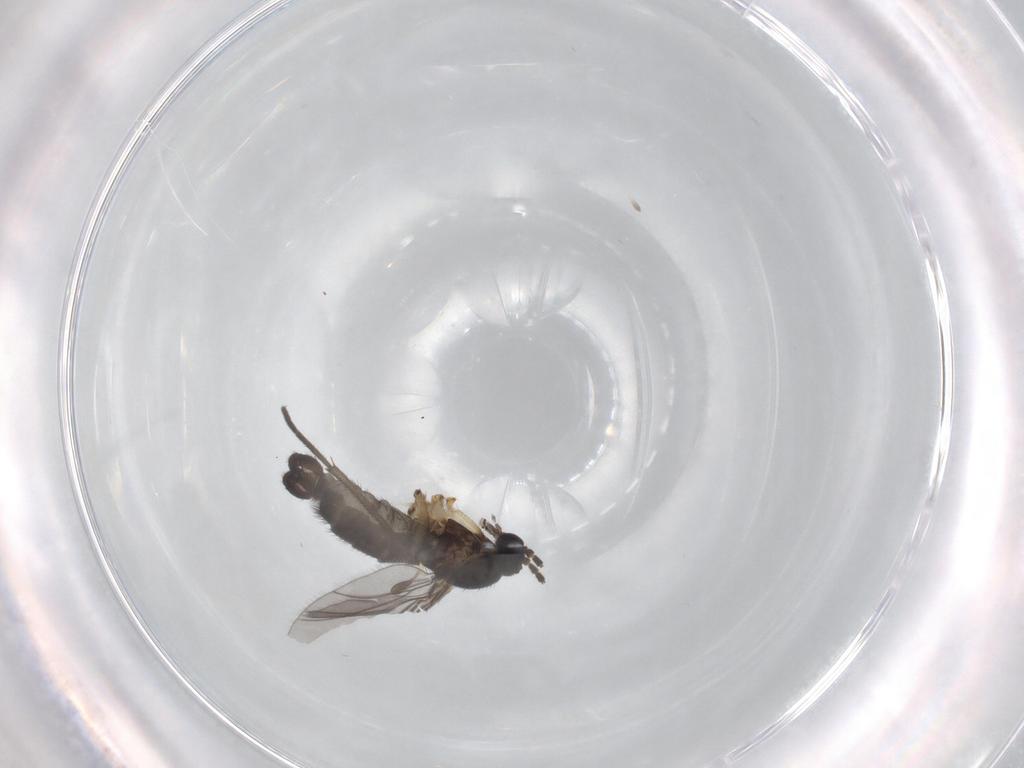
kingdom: Animalia
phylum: Arthropoda
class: Insecta
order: Diptera
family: Sciaridae
